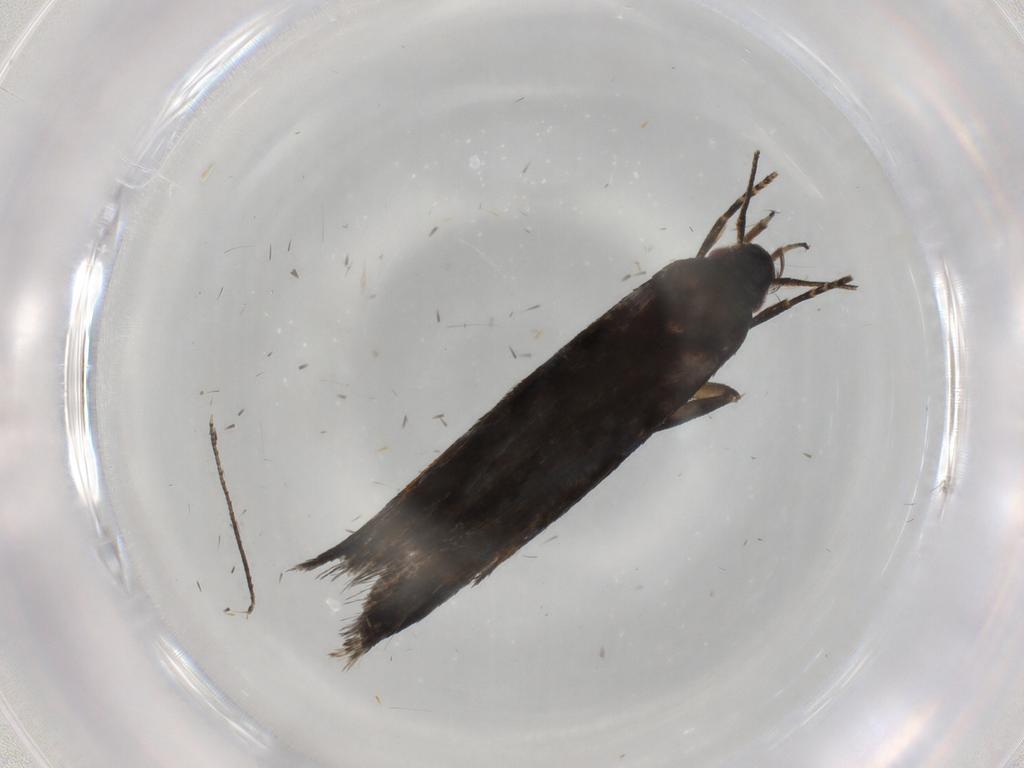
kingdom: Animalia
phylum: Arthropoda
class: Insecta
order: Lepidoptera
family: Gelechiidae
